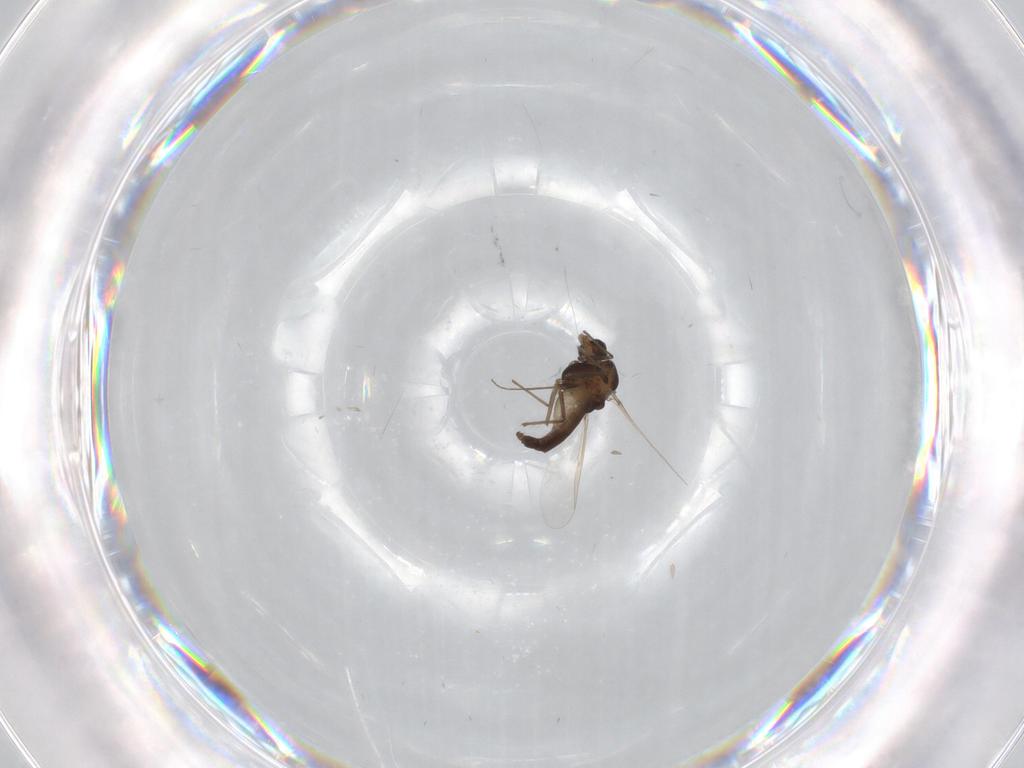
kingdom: Animalia
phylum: Arthropoda
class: Insecta
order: Diptera
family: Chironomidae
